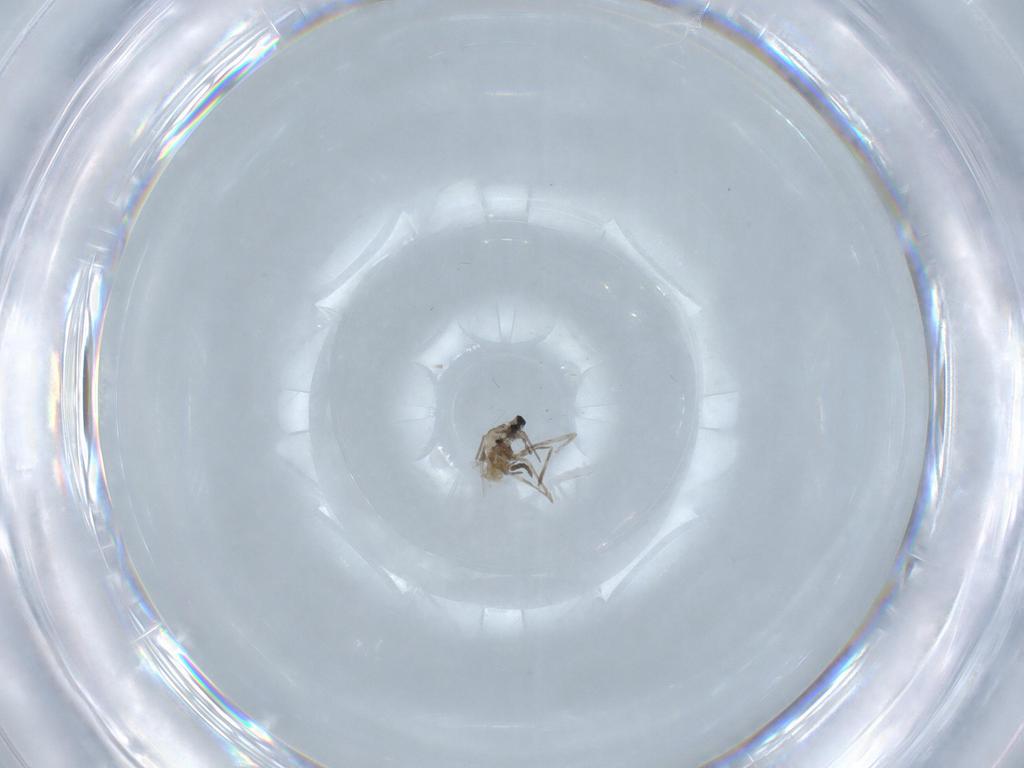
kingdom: Animalia
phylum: Arthropoda
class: Insecta
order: Diptera
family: Cecidomyiidae
